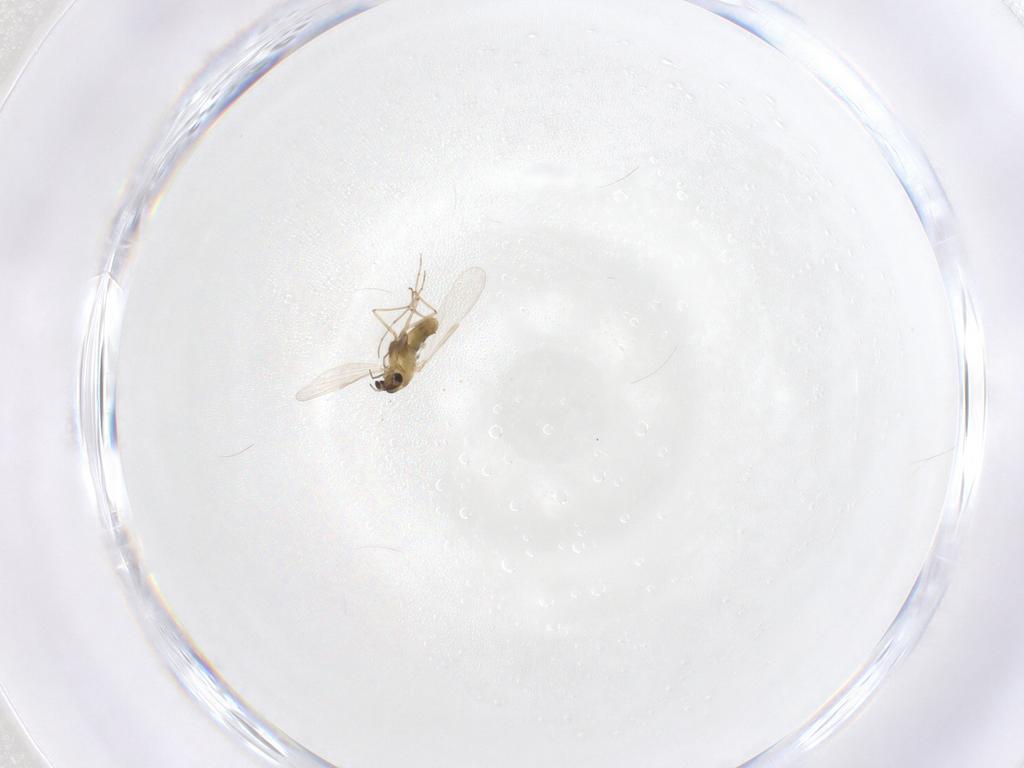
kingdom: Animalia
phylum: Arthropoda
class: Insecta
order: Diptera
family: Chironomidae
